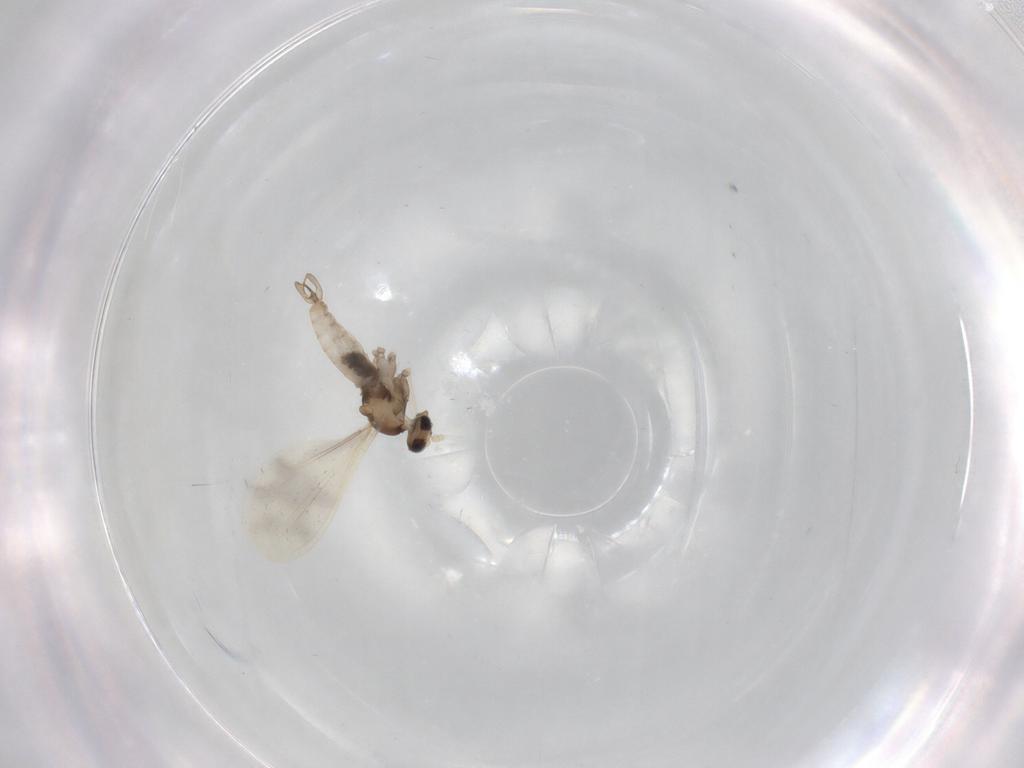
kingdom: Animalia
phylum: Arthropoda
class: Insecta
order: Diptera
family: Cecidomyiidae
